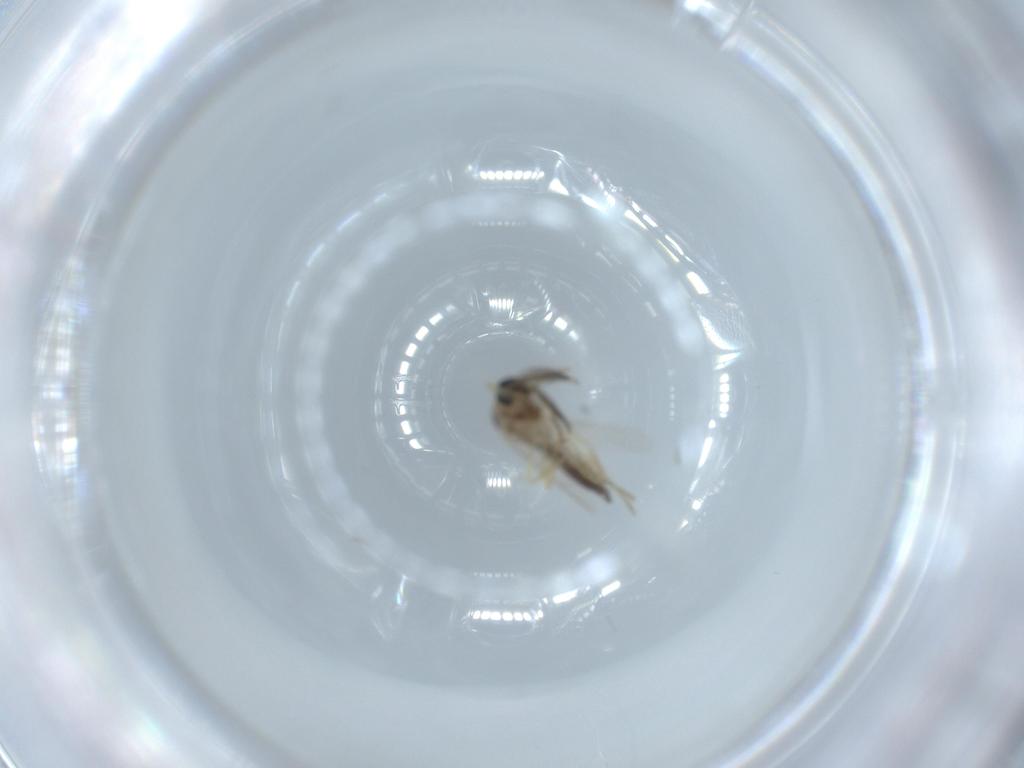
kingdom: Animalia
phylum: Arthropoda
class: Insecta
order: Diptera
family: Ceratopogonidae
